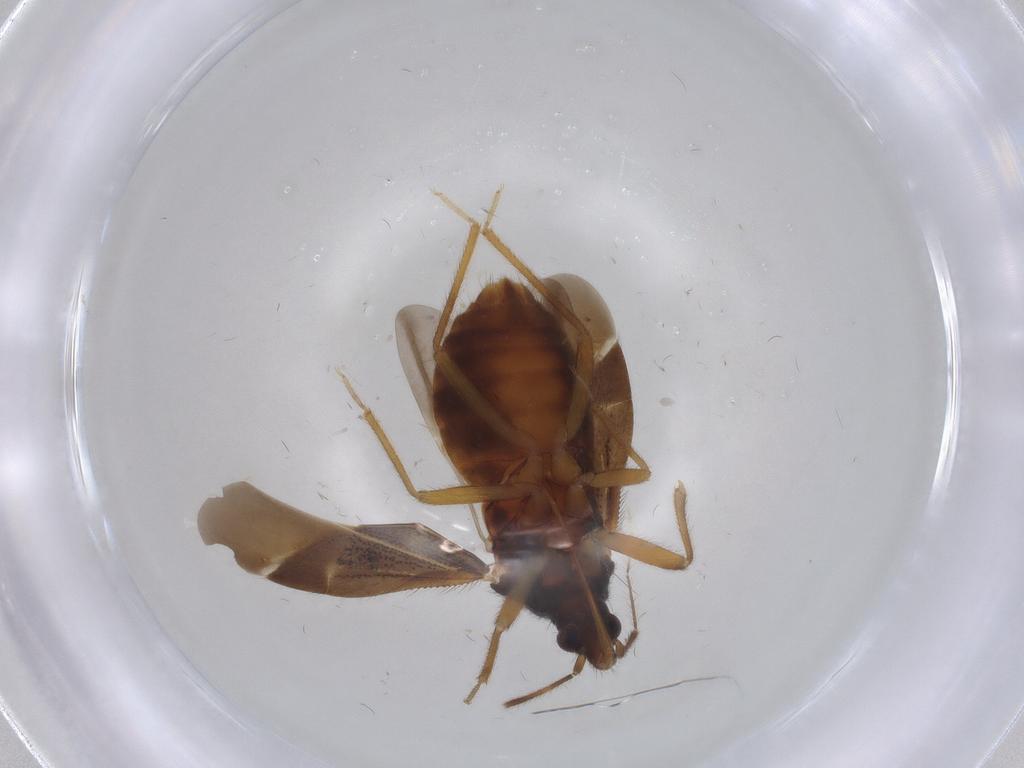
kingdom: Animalia
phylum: Arthropoda
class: Insecta
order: Hemiptera
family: Anthocoridae
